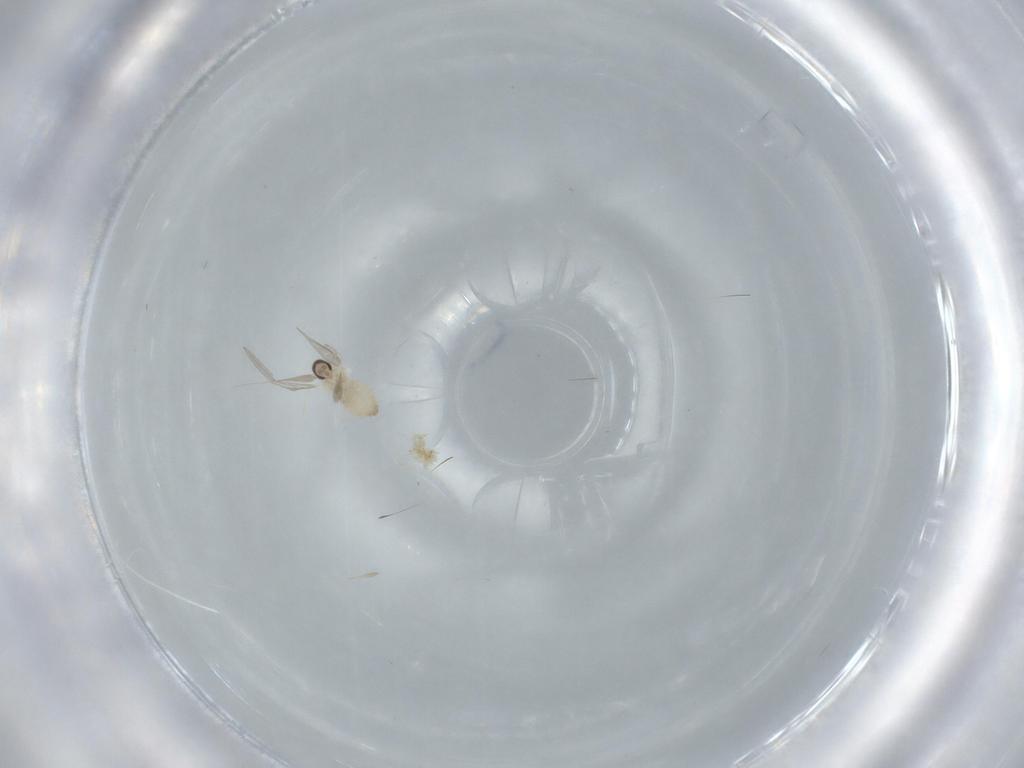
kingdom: Animalia
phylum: Arthropoda
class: Insecta
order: Diptera
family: Cecidomyiidae
